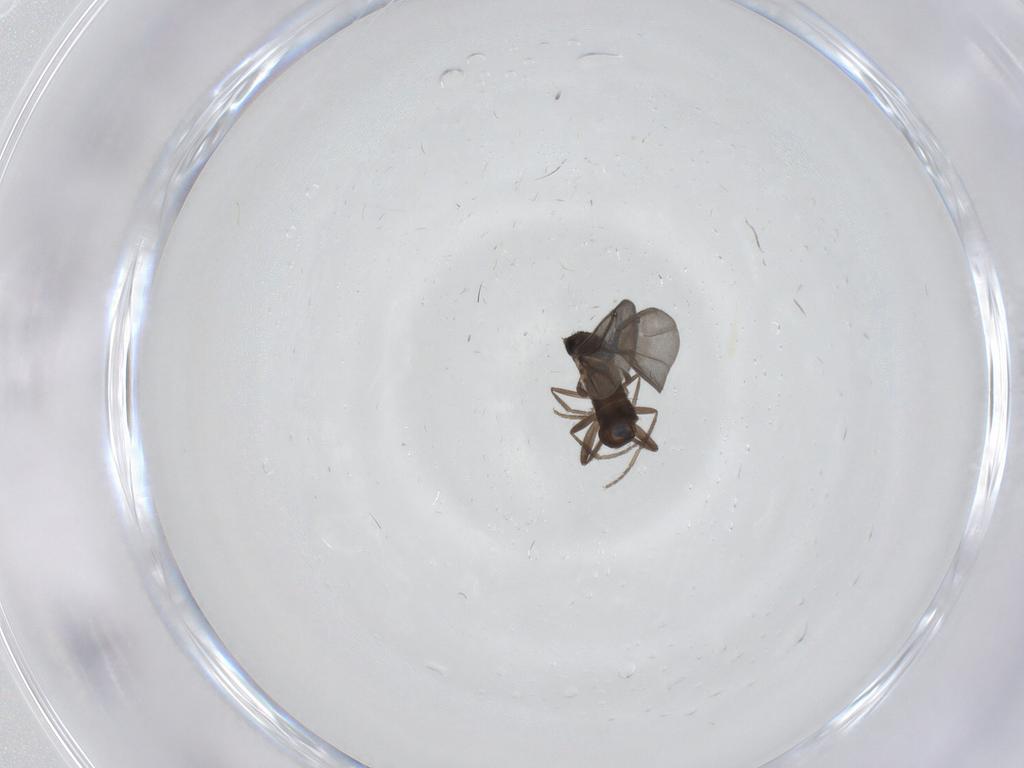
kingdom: Animalia
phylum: Arthropoda
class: Insecta
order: Diptera
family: Phoridae
